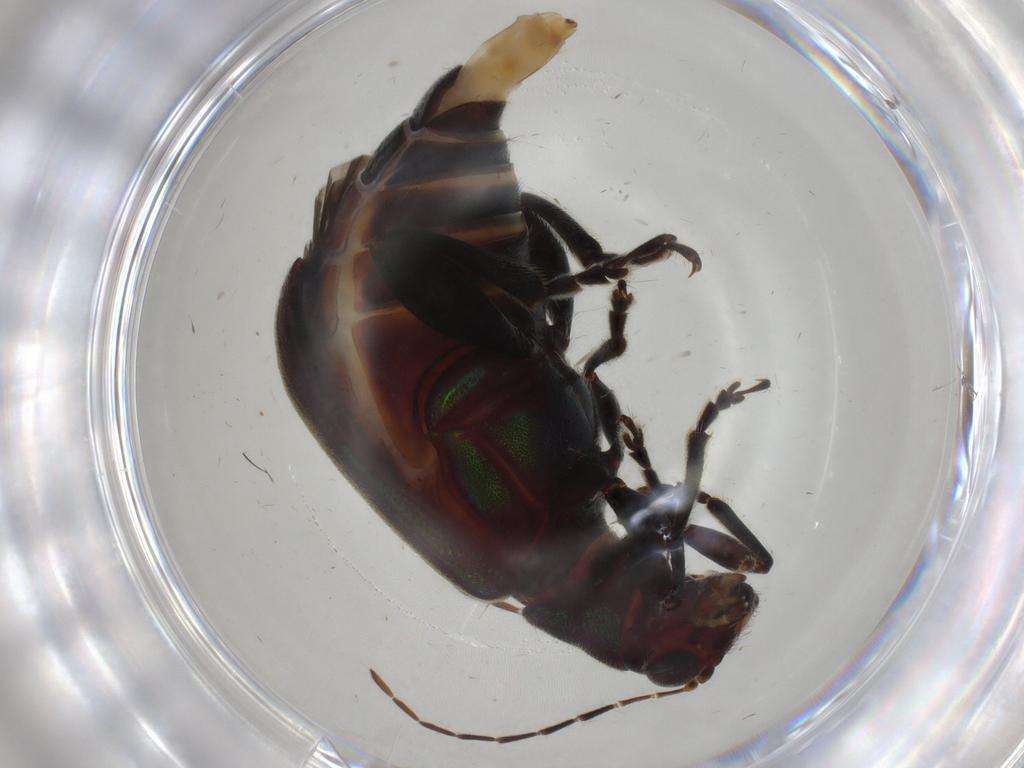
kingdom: Animalia
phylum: Arthropoda
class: Insecta
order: Coleoptera
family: Chrysomelidae
